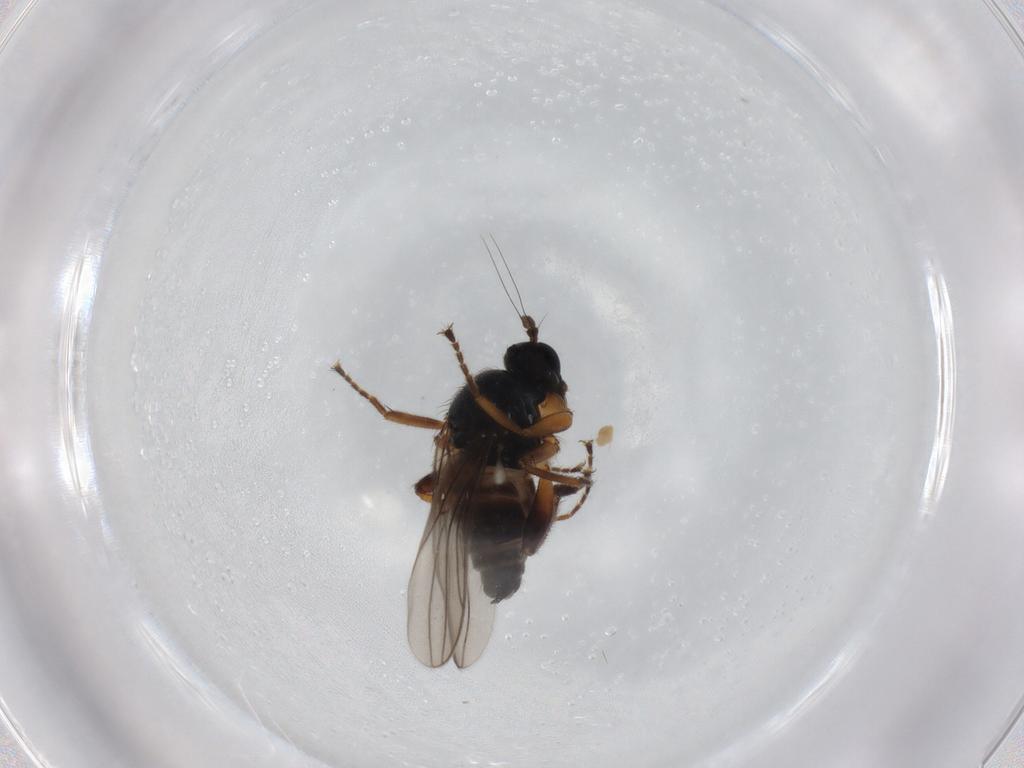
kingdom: Animalia
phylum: Arthropoda
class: Insecta
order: Diptera
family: Hybotidae
